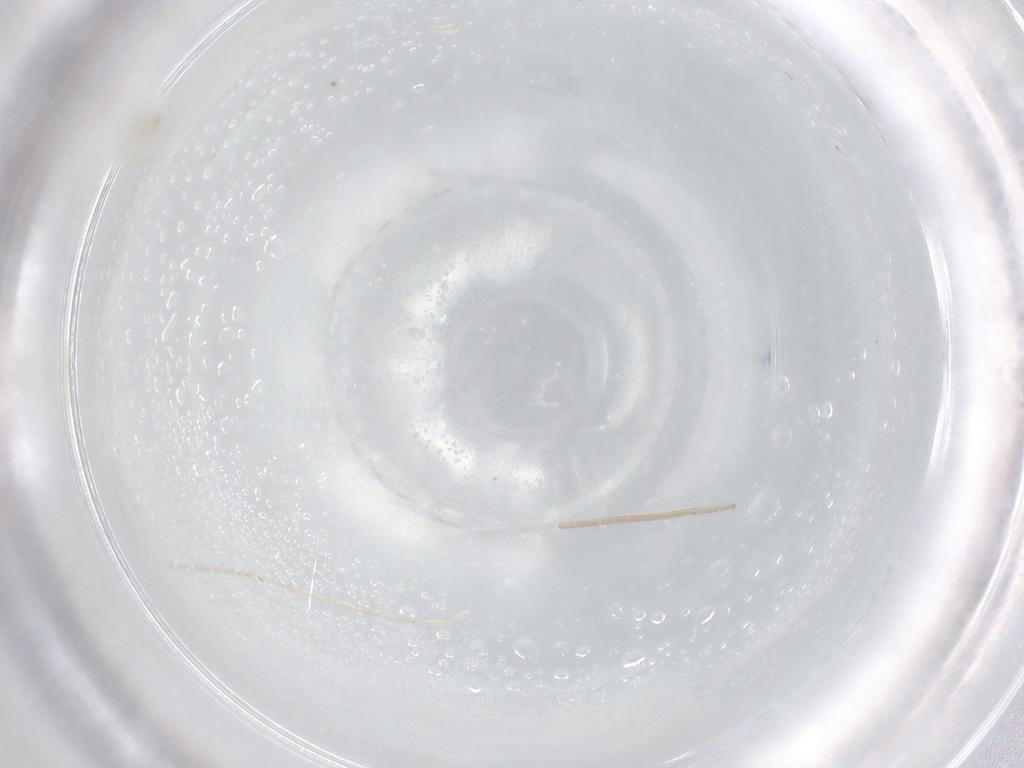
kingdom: Animalia
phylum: Arthropoda
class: Arachnida
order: Trombidiformes
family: Erythraeidae
